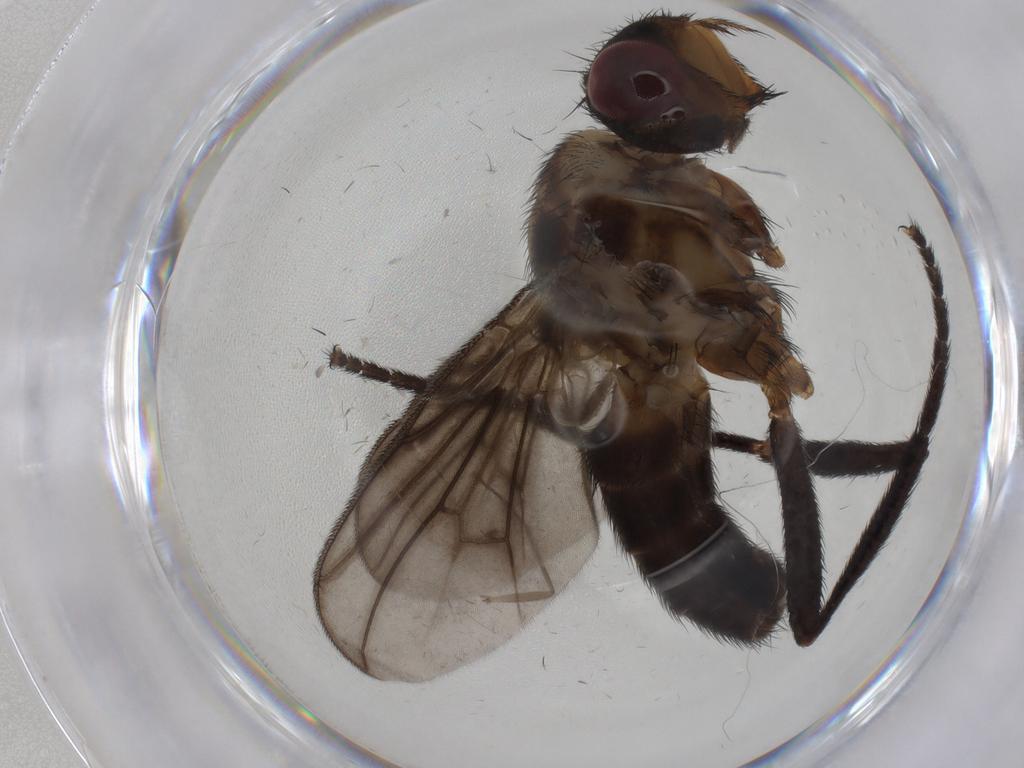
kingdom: Animalia
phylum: Arthropoda
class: Insecta
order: Diptera
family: Calliphoridae
